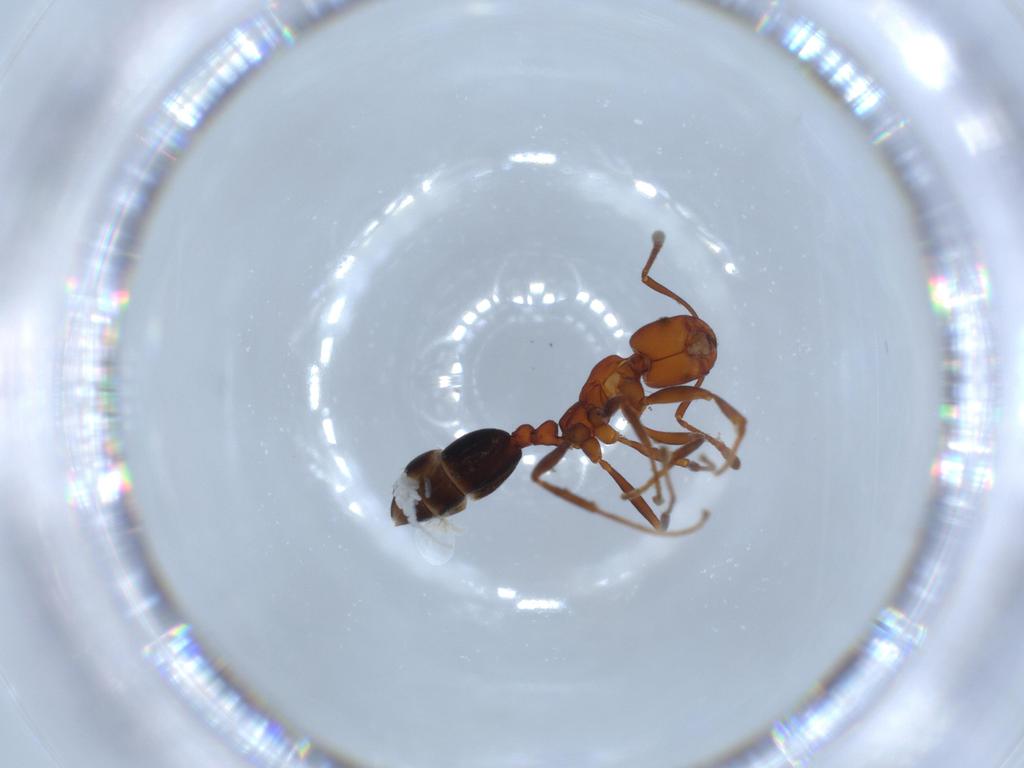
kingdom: Animalia
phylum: Arthropoda
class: Insecta
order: Hymenoptera
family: Formicidae
